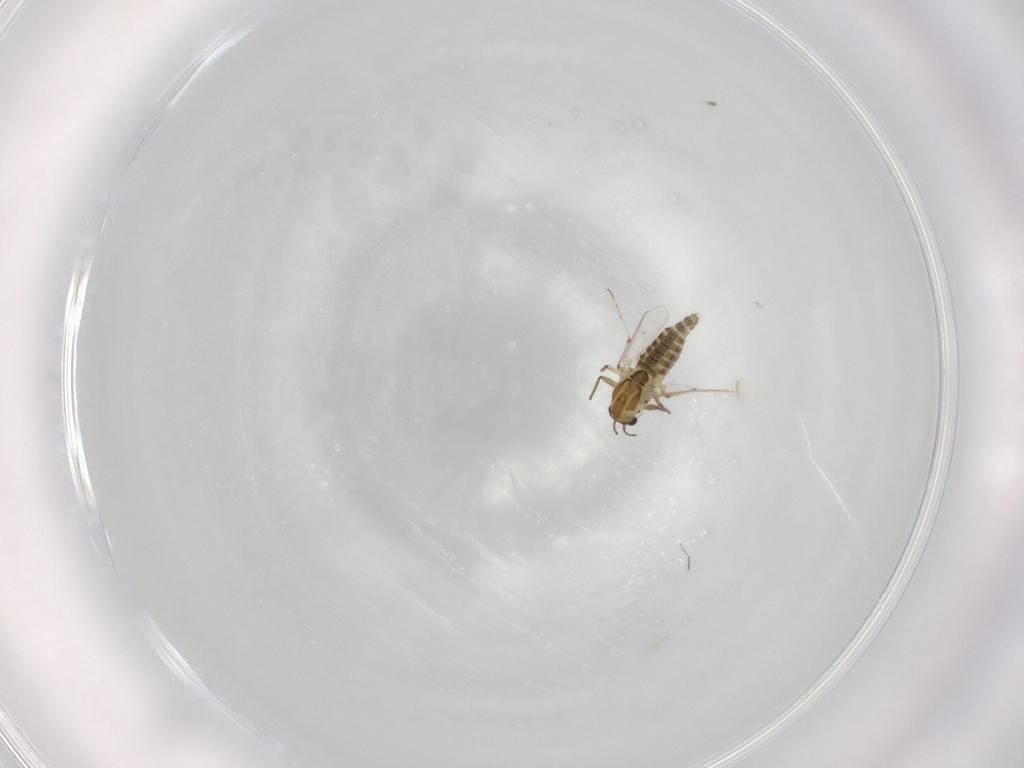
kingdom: Animalia
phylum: Arthropoda
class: Insecta
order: Diptera
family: Chironomidae
